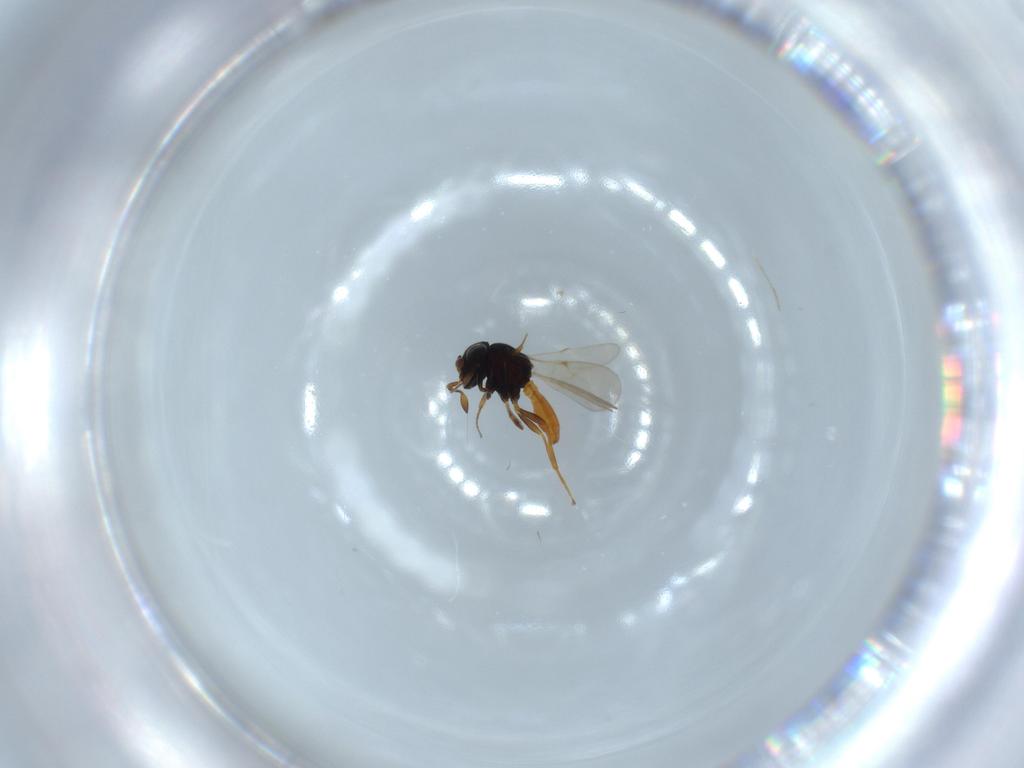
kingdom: Animalia
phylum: Arthropoda
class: Insecta
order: Hymenoptera
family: Scelionidae
